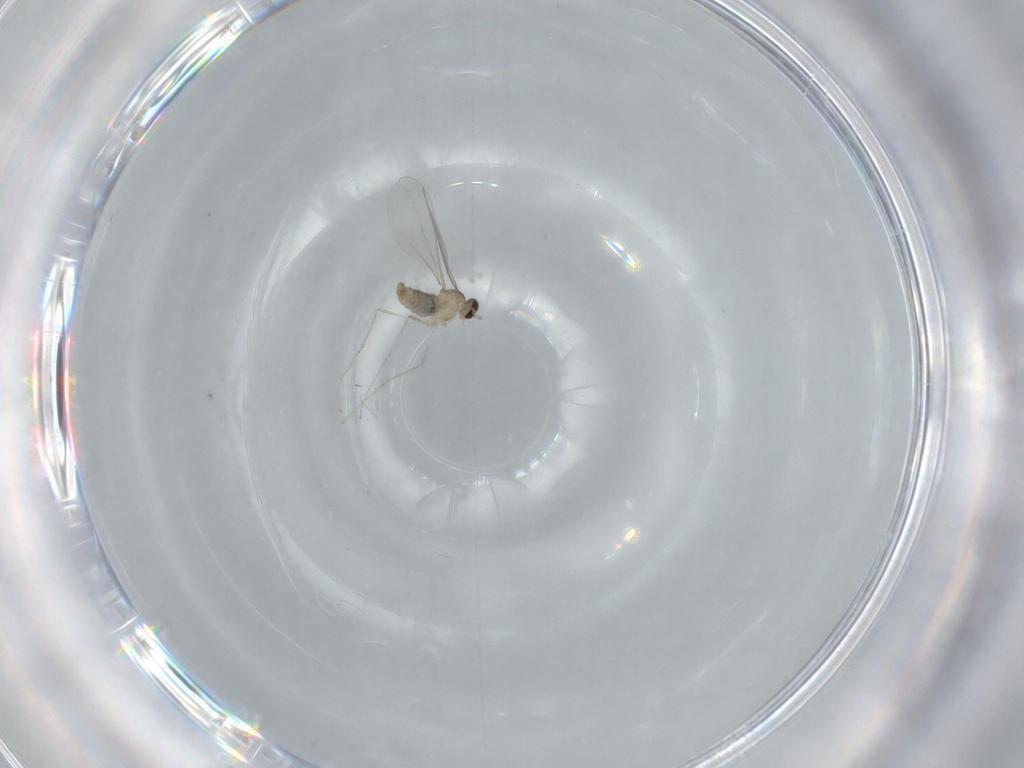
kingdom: Animalia
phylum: Arthropoda
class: Insecta
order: Diptera
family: Cecidomyiidae
